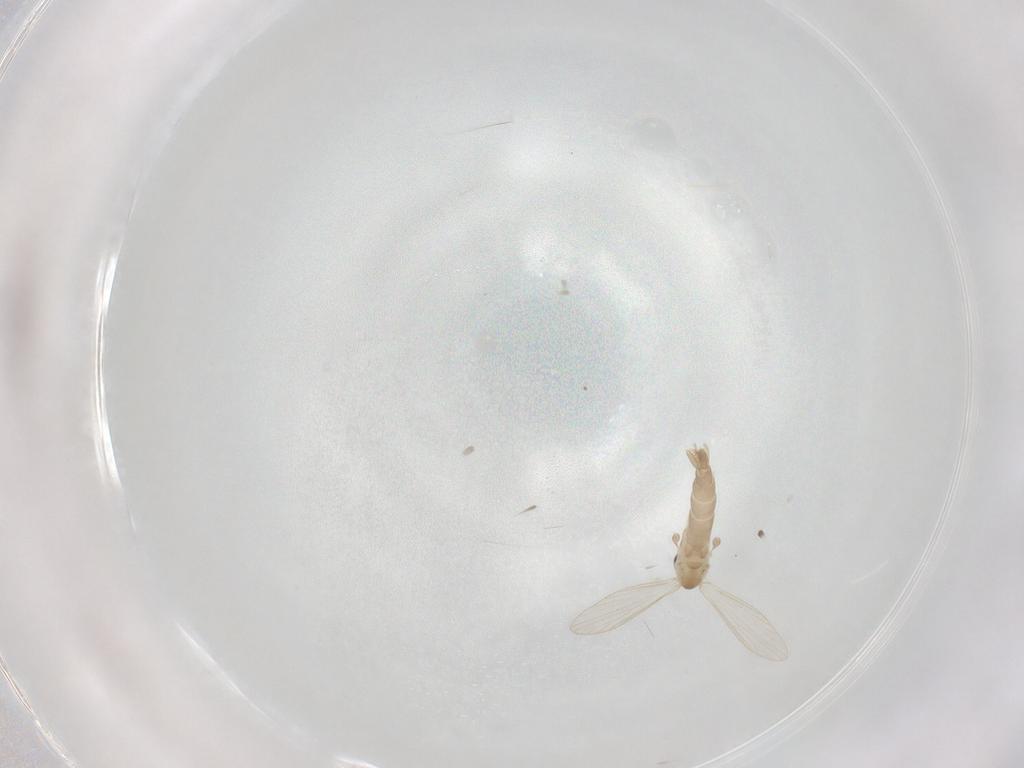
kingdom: Animalia
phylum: Arthropoda
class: Insecta
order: Diptera
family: Psychodidae
